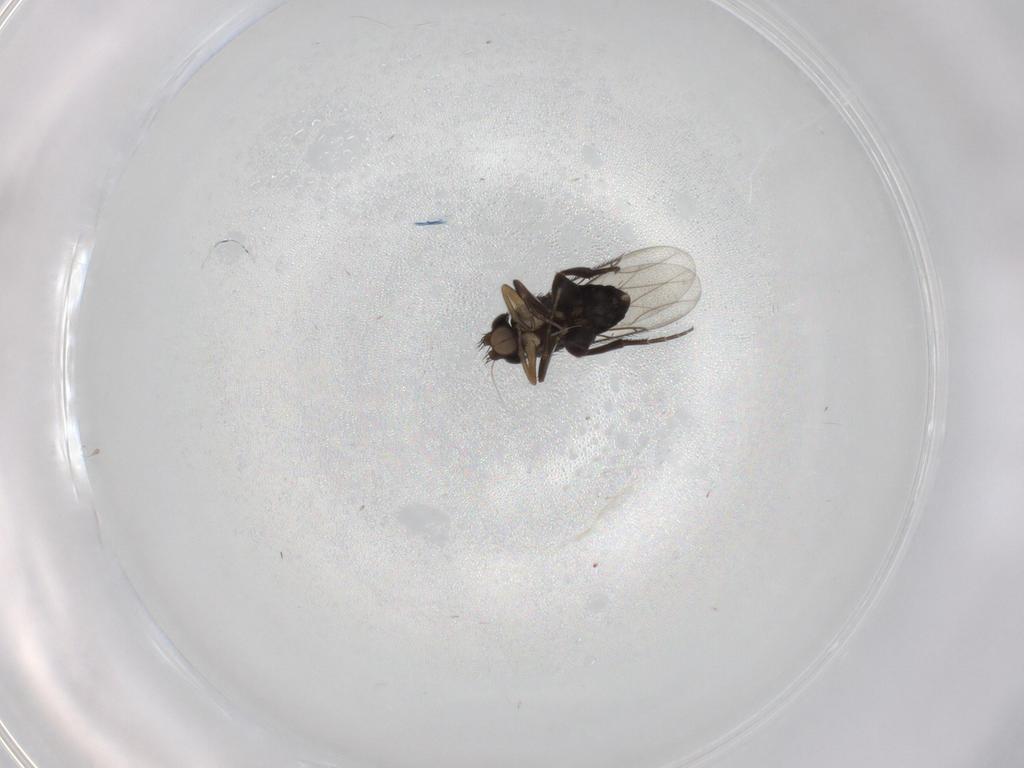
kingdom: Animalia
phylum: Arthropoda
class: Insecta
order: Diptera
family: Phoridae
